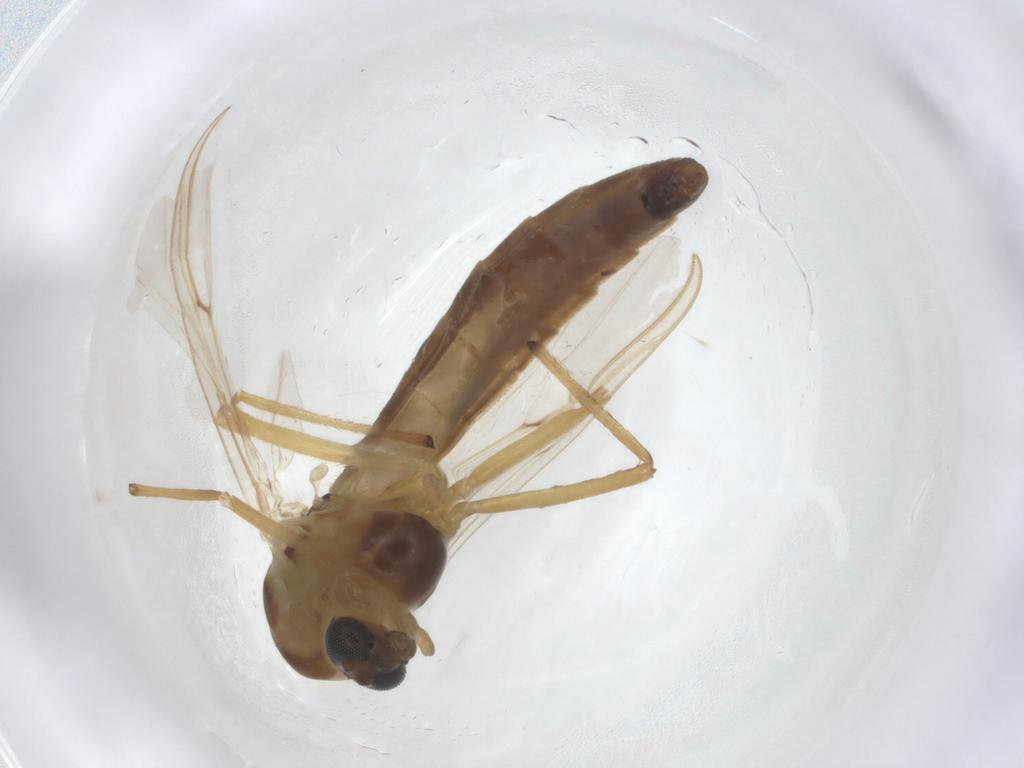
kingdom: Animalia
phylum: Arthropoda
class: Insecta
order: Diptera
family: Chironomidae
